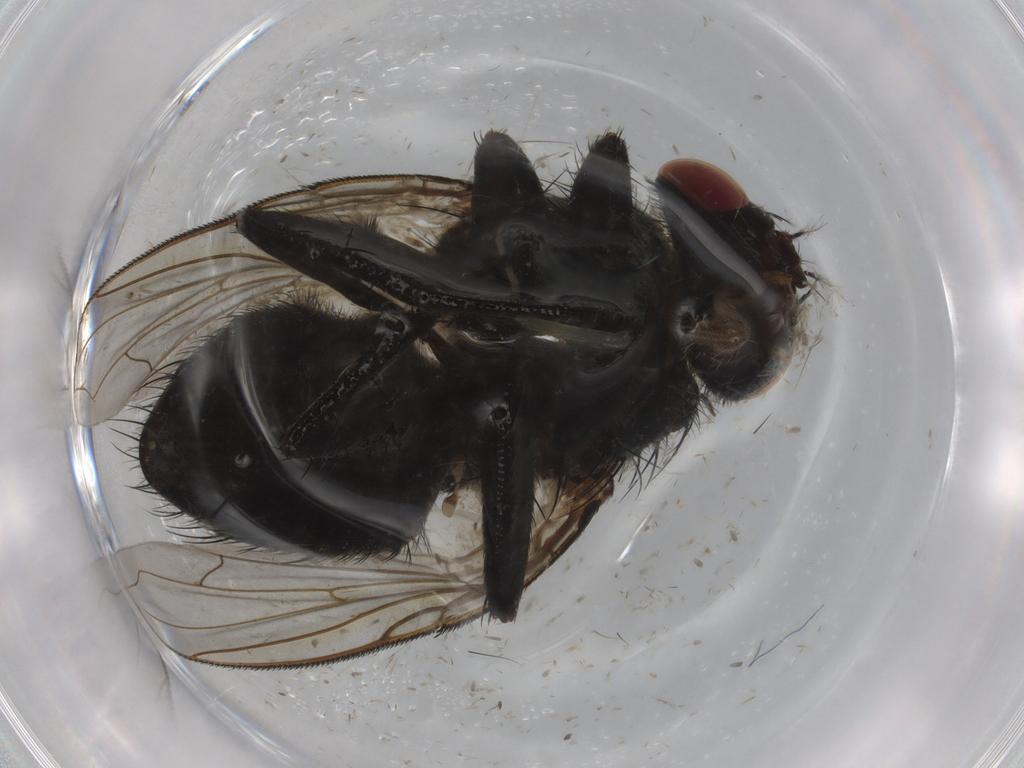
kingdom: Animalia
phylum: Arthropoda
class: Insecta
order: Diptera
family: Calliphoridae
